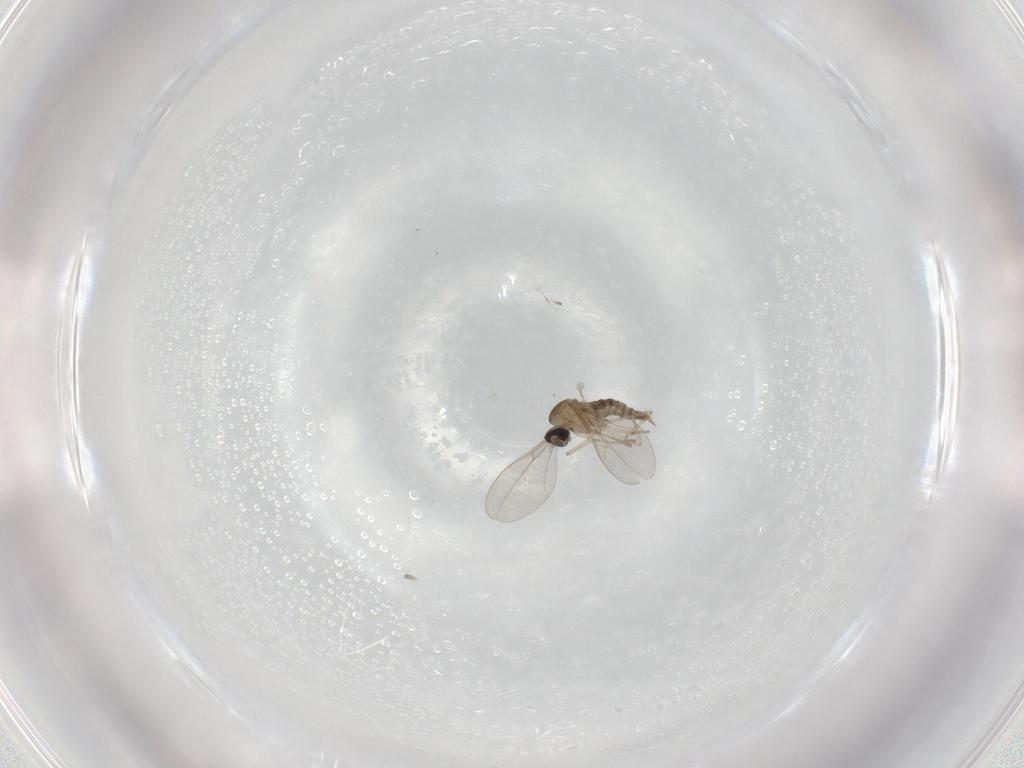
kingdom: Animalia
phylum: Arthropoda
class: Insecta
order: Diptera
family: Cecidomyiidae
